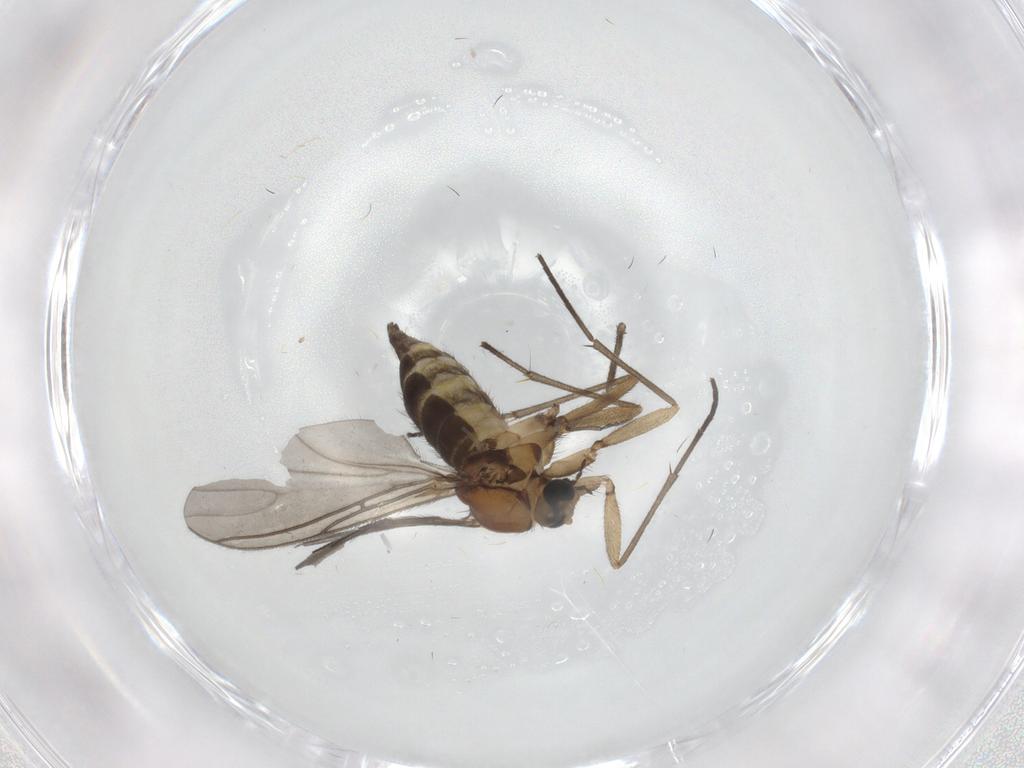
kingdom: Animalia
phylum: Arthropoda
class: Insecta
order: Diptera
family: Sciaridae
